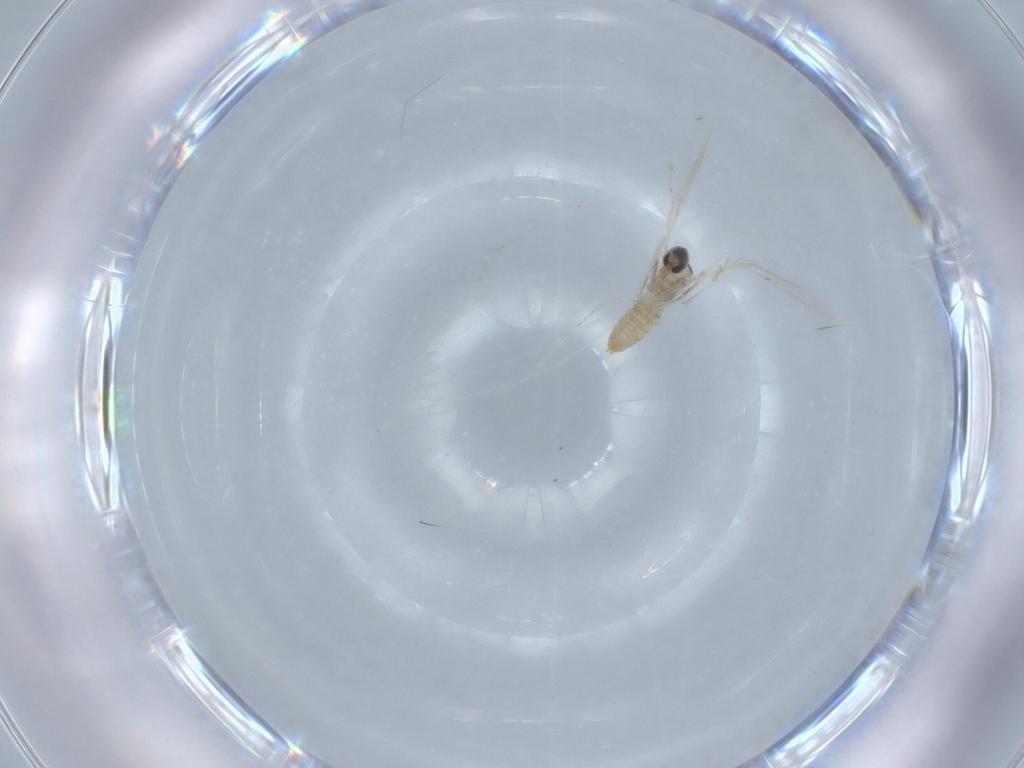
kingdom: Animalia
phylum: Arthropoda
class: Insecta
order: Diptera
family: Cecidomyiidae
